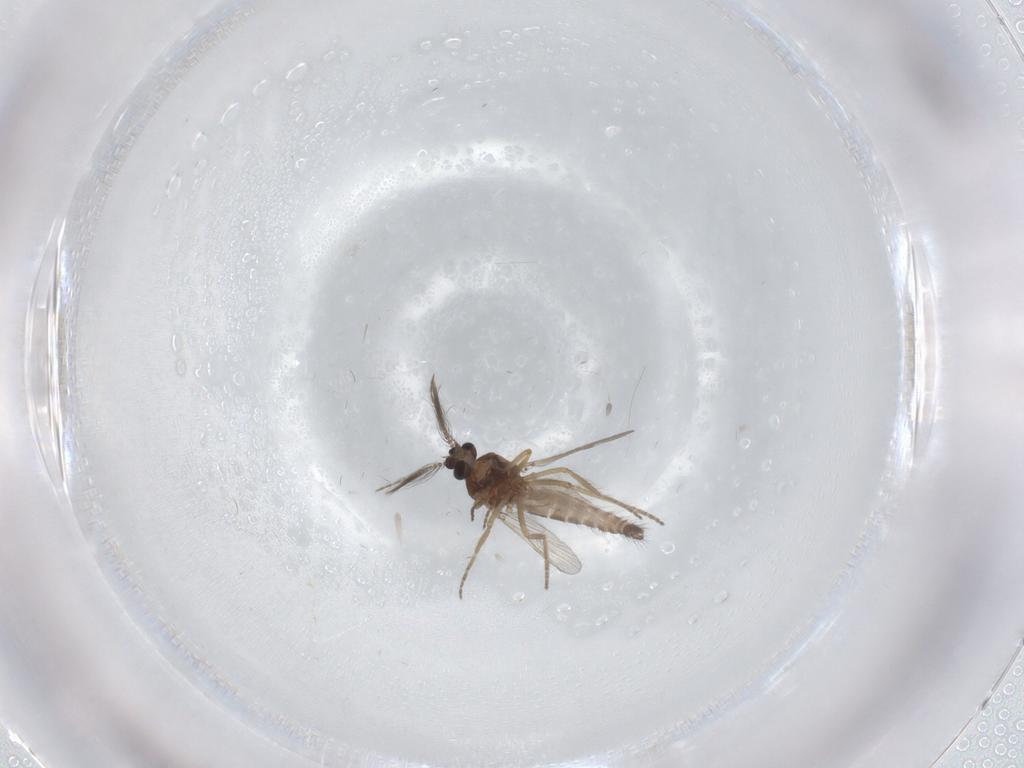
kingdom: Animalia
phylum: Arthropoda
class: Insecta
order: Diptera
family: Ceratopogonidae
